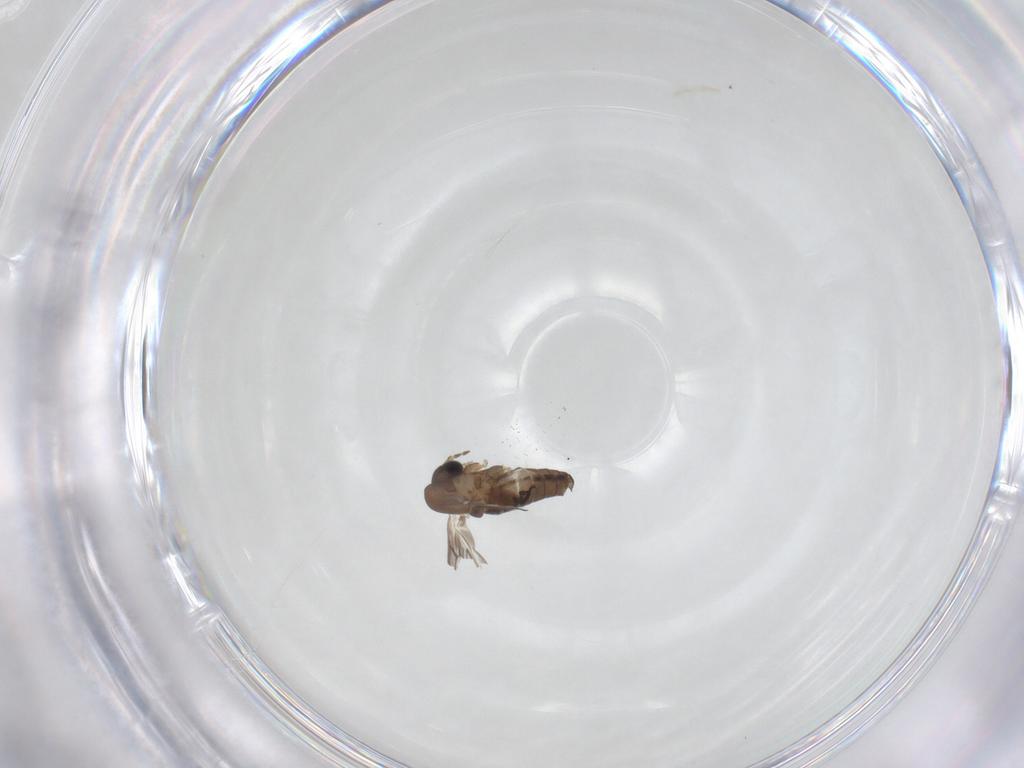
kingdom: Animalia
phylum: Arthropoda
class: Insecta
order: Diptera
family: Psychodidae
